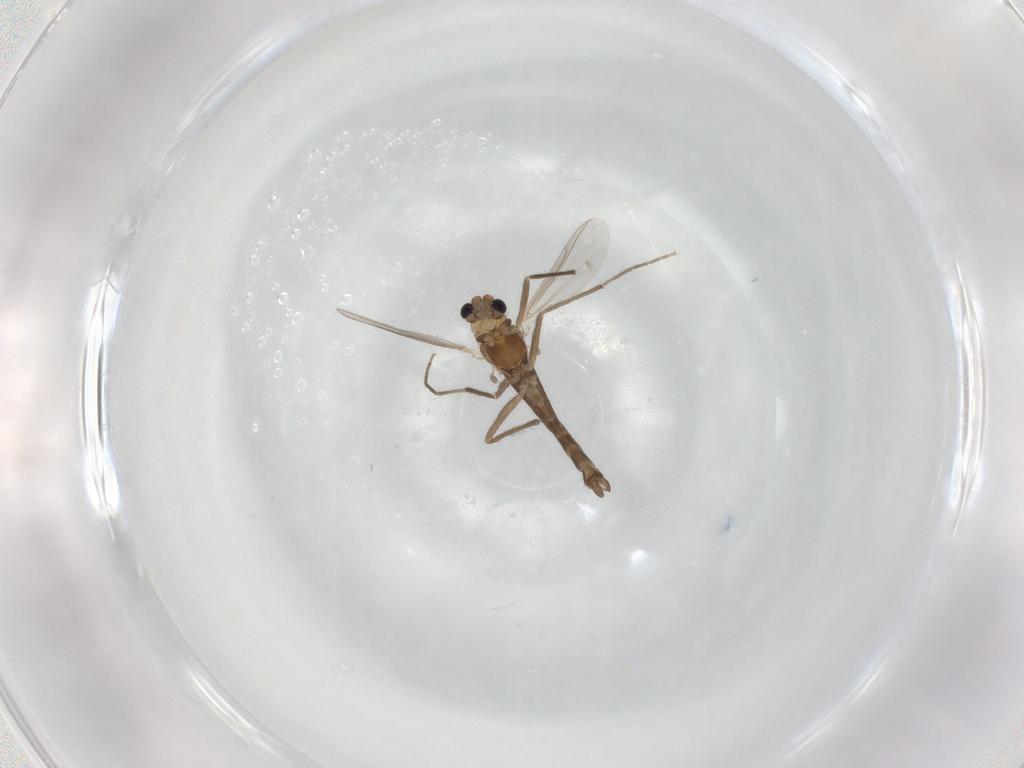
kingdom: Animalia
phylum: Arthropoda
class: Insecta
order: Diptera
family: Chironomidae
